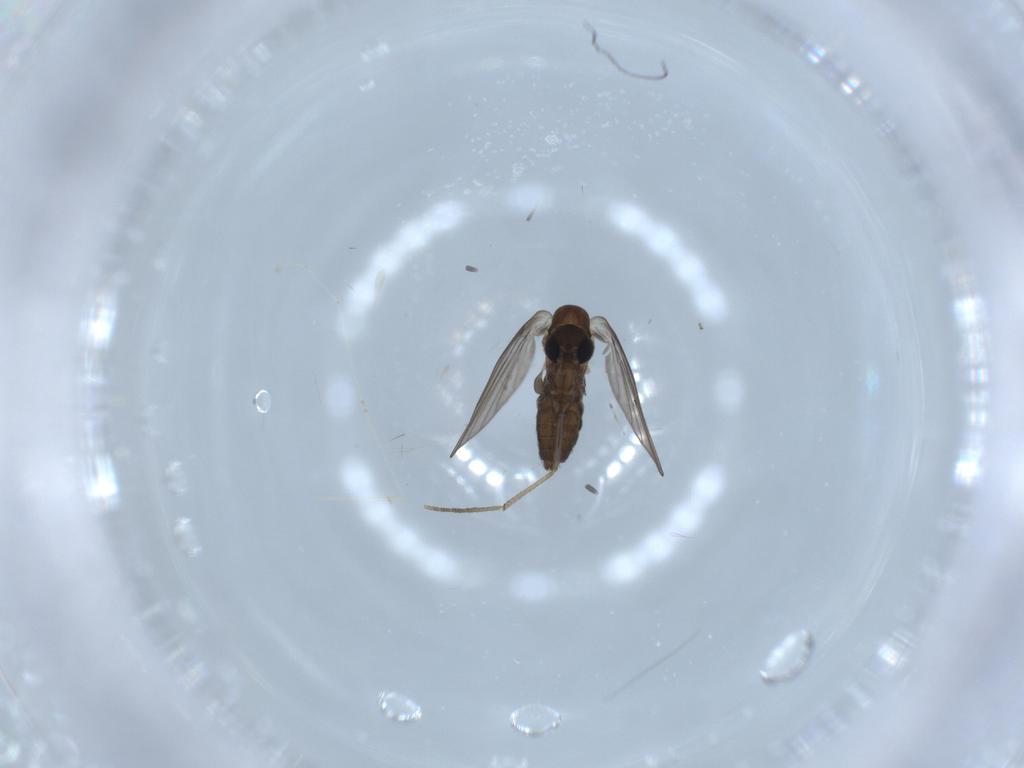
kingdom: Animalia
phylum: Arthropoda
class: Insecta
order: Diptera
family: Cecidomyiidae
